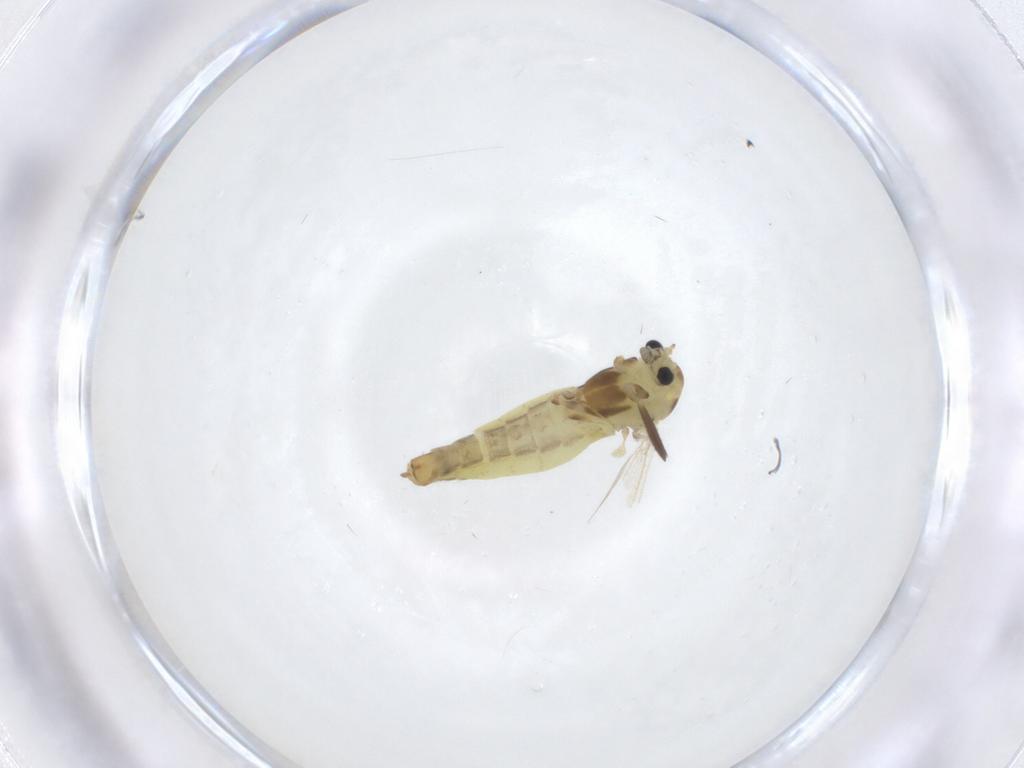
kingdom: Animalia
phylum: Arthropoda
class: Insecta
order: Diptera
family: Chironomidae
